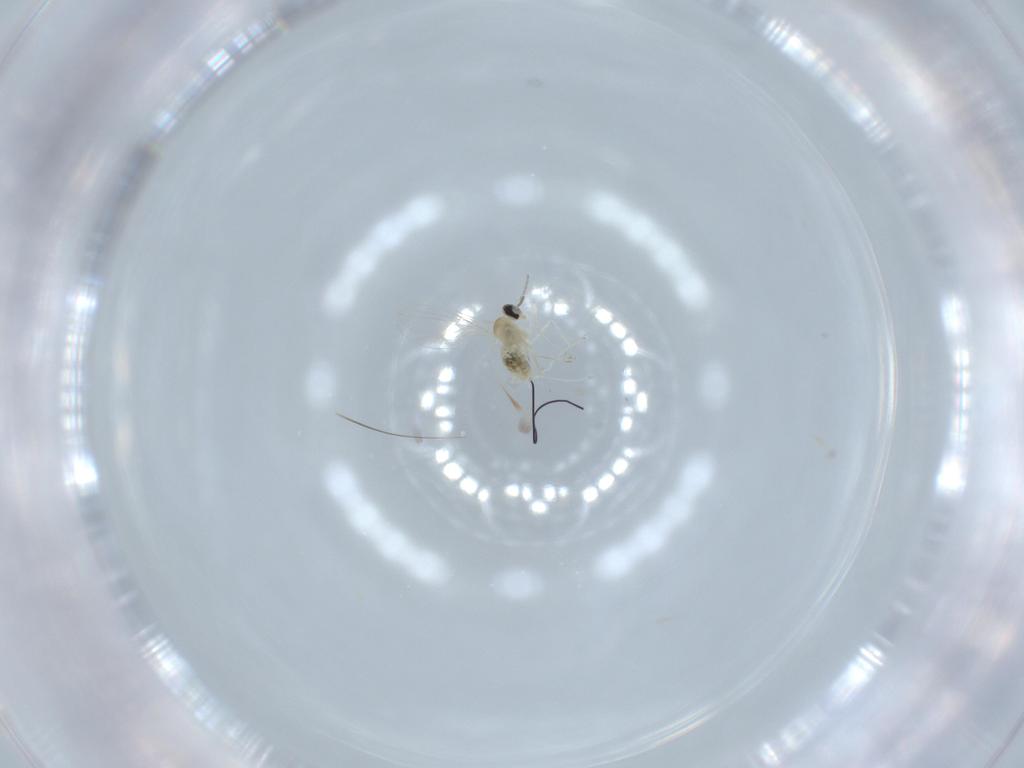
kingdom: Animalia
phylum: Arthropoda
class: Insecta
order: Diptera
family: Cecidomyiidae
